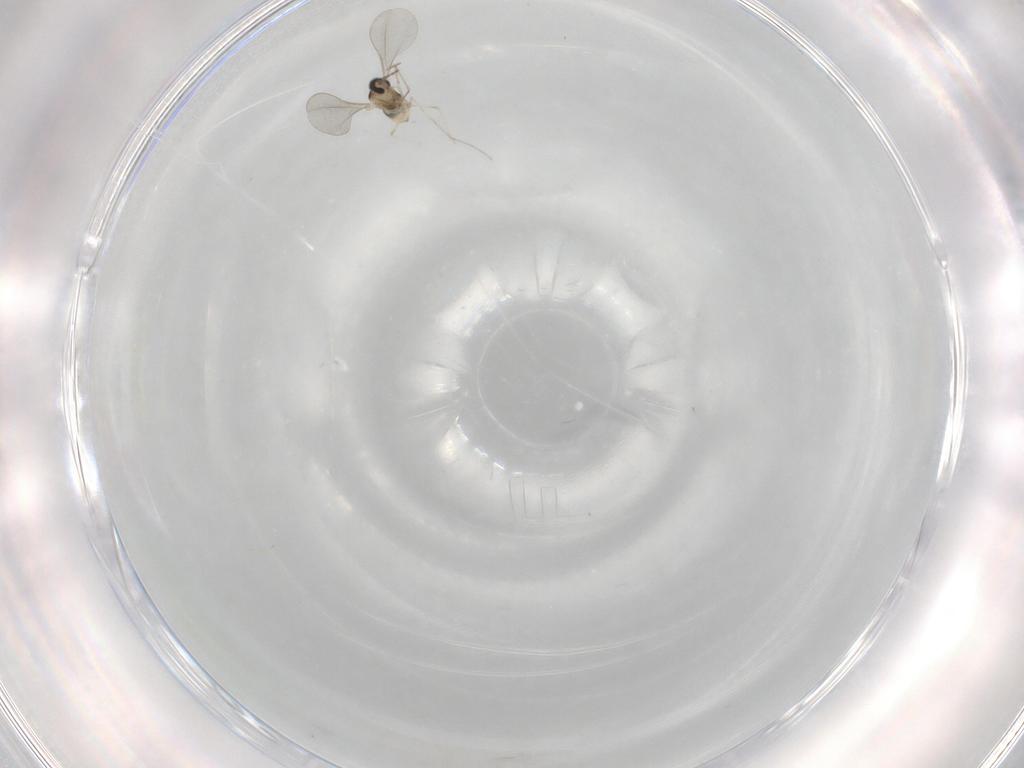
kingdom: Animalia
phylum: Arthropoda
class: Insecta
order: Diptera
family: Cecidomyiidae
